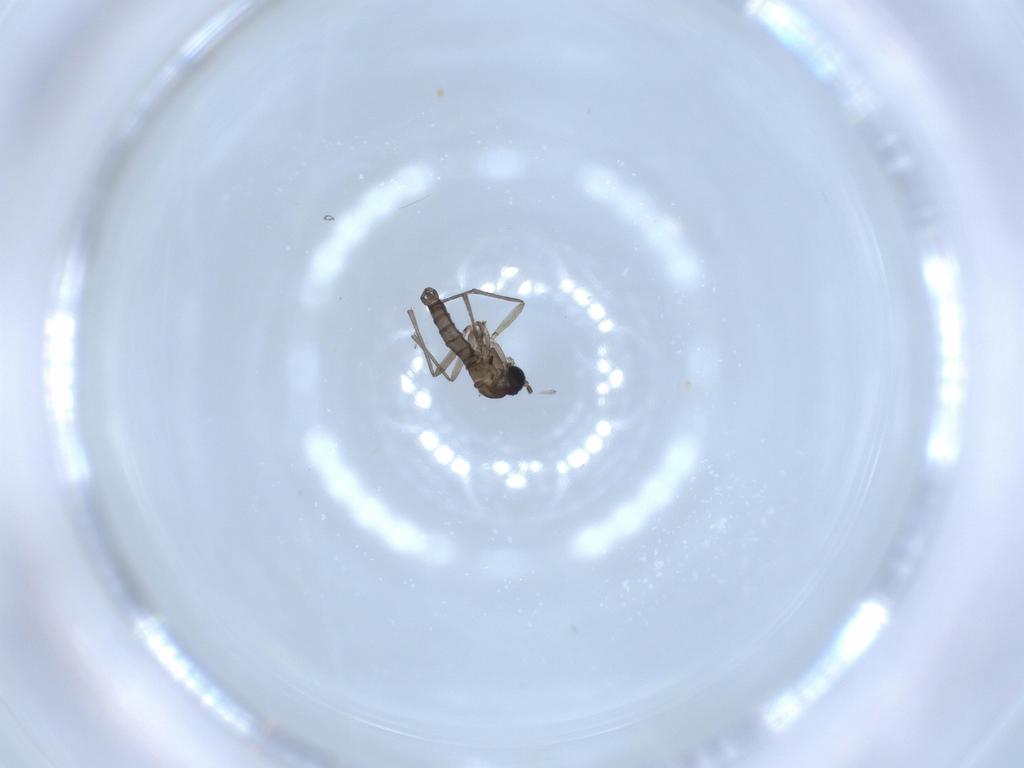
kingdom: Animalia
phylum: Arthropoda
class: Insecta
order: Diptera
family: Sciaridae
